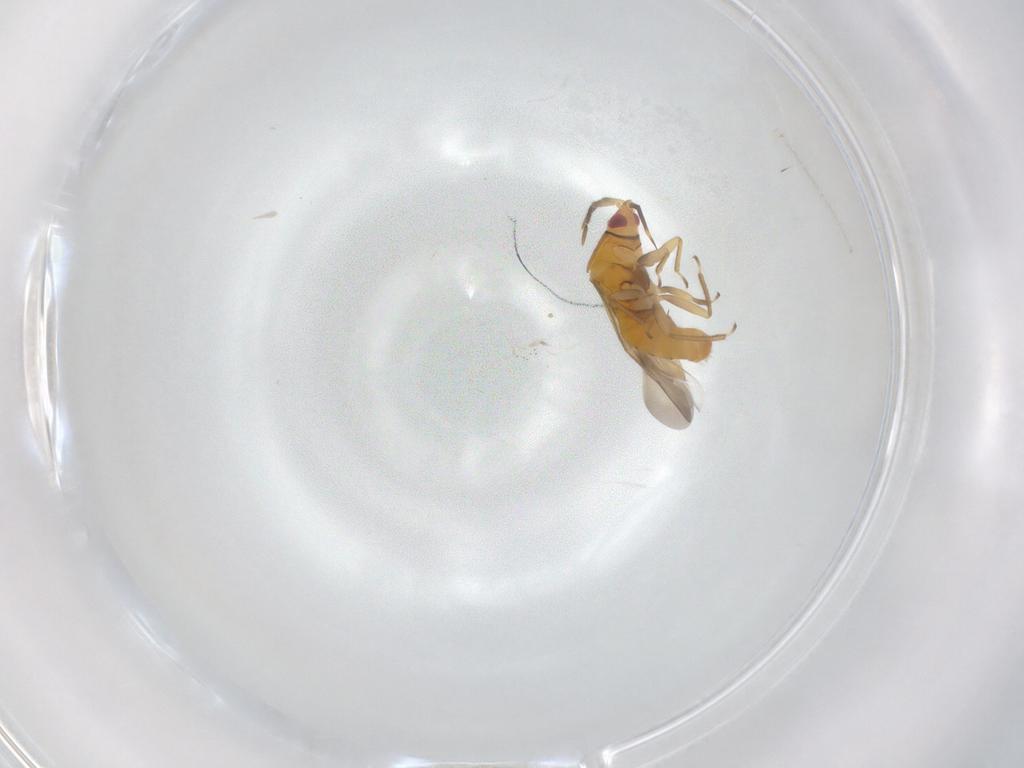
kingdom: Animalia
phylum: Arthropoda
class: Insecta
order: Hemiptera
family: Anthocoridae
